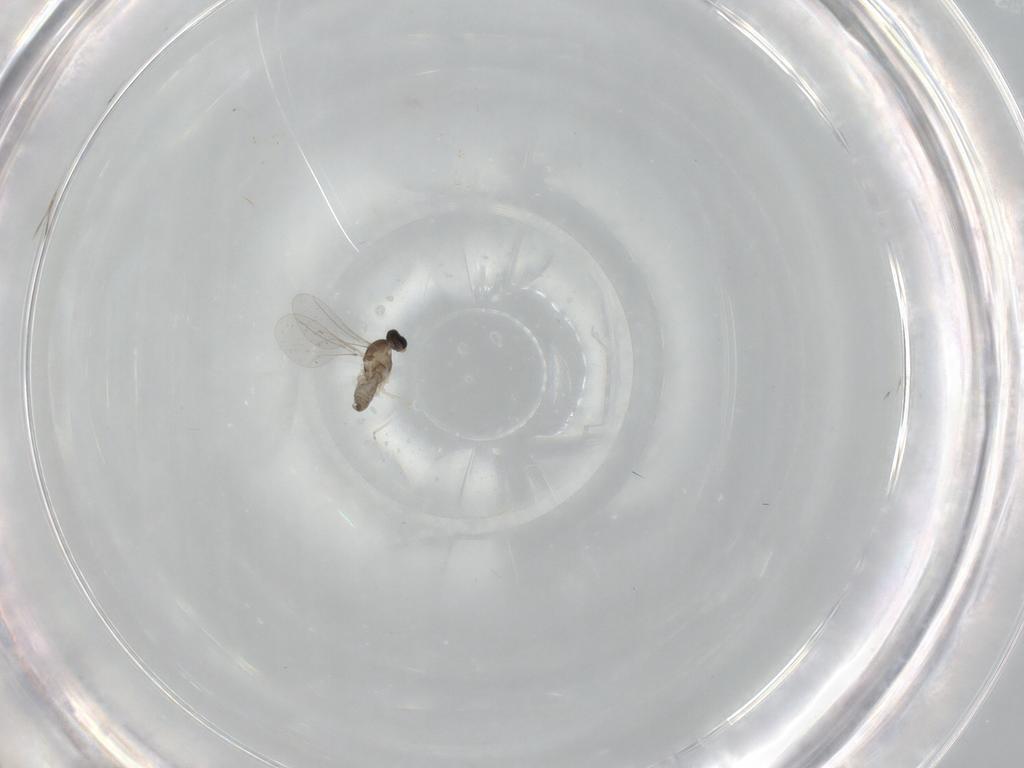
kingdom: Animalia
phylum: Arthropoda
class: Insecta
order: Diptera
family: Cecidomyiidae
